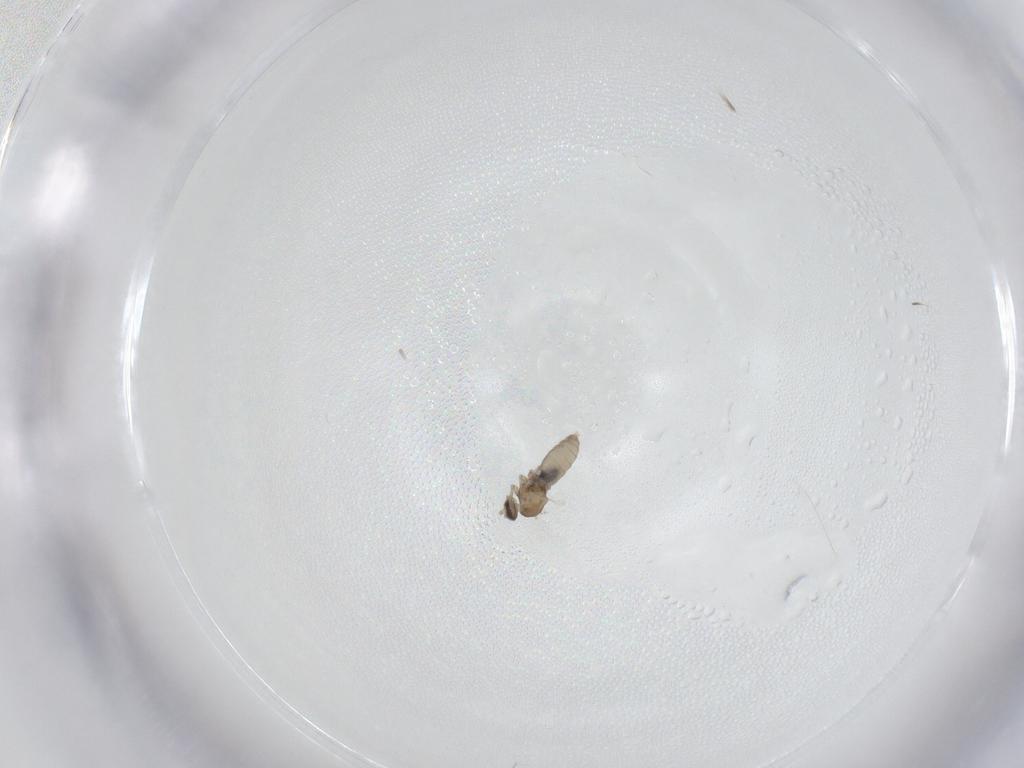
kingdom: Animalia
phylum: Arthropoda
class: Insecta
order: Diptera
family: Cecidomyiidae
